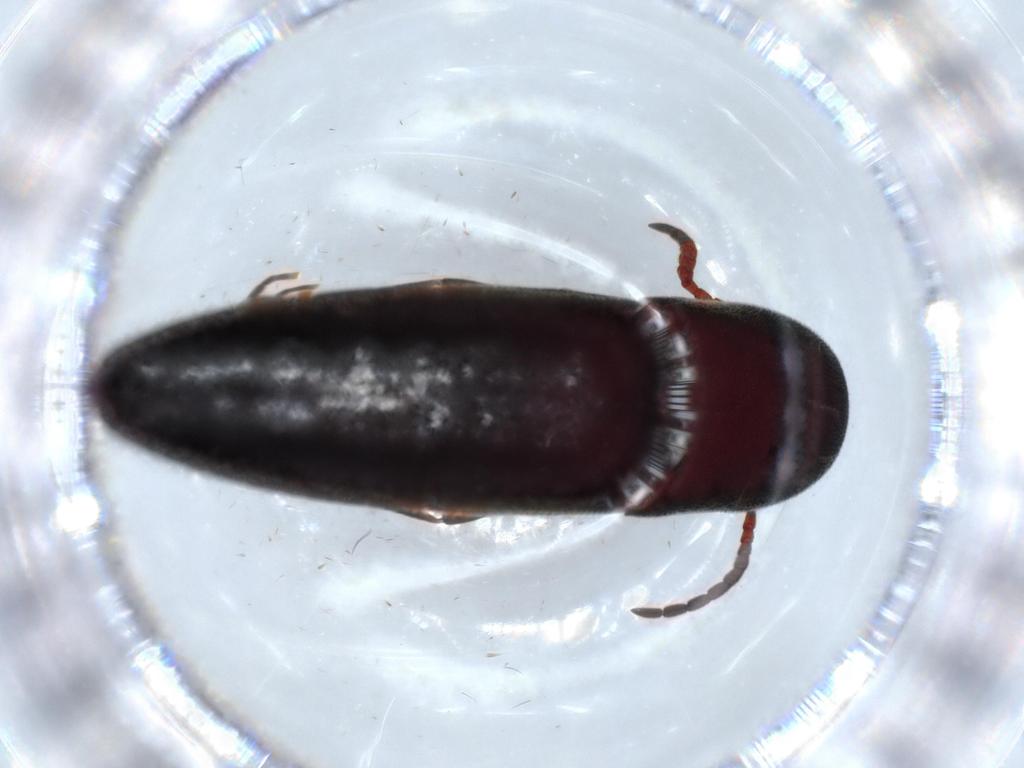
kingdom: Animalia
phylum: Arthropoda
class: Insecta
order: Coleoptera
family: Eucnemidae
